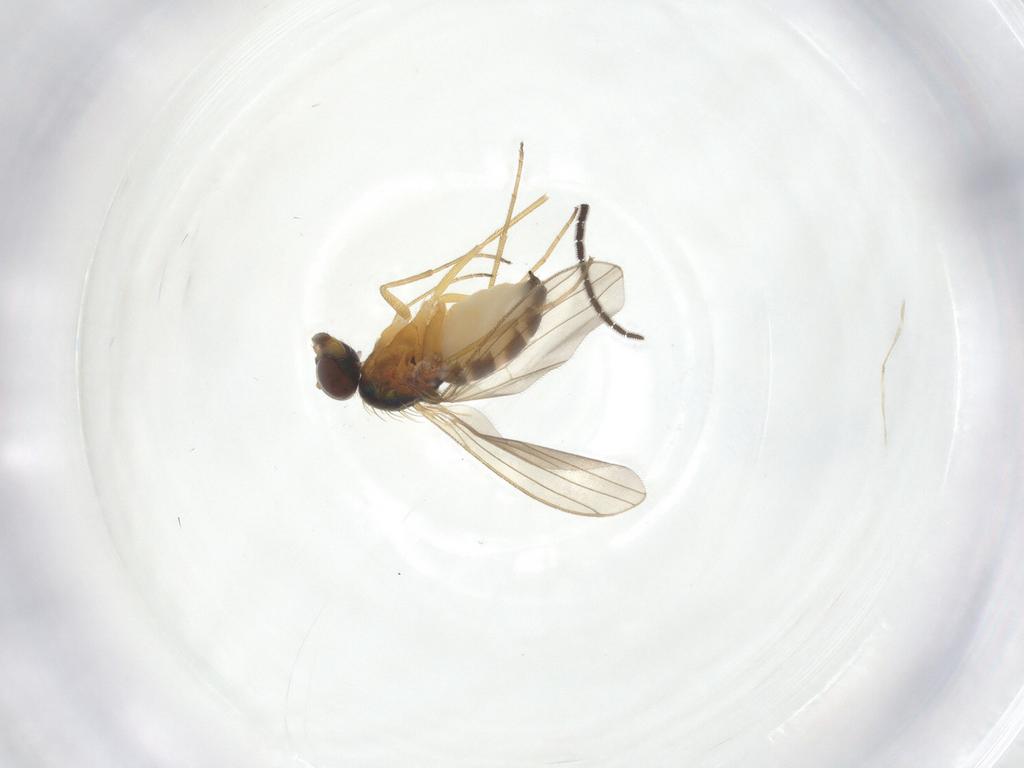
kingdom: Animalia
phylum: Arthropoda
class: Insecta
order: Diptera
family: Dolichopodidae
